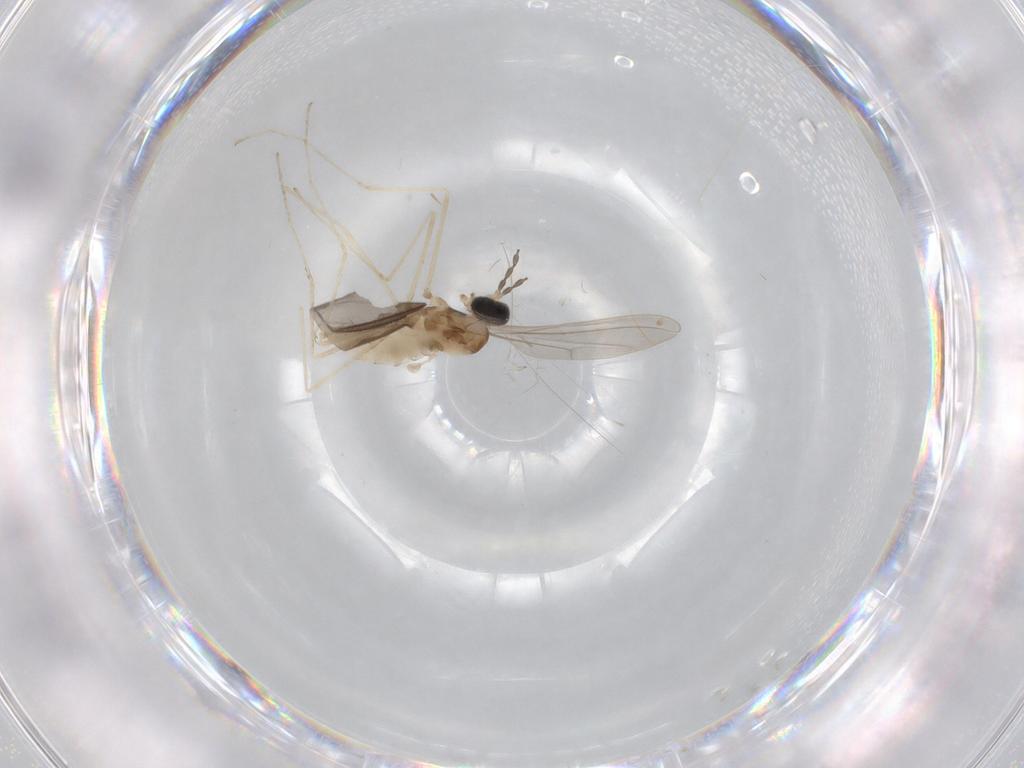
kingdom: Animalia
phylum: Arthropoda
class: Insecta
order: Diptera
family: Cecidomyiidae
